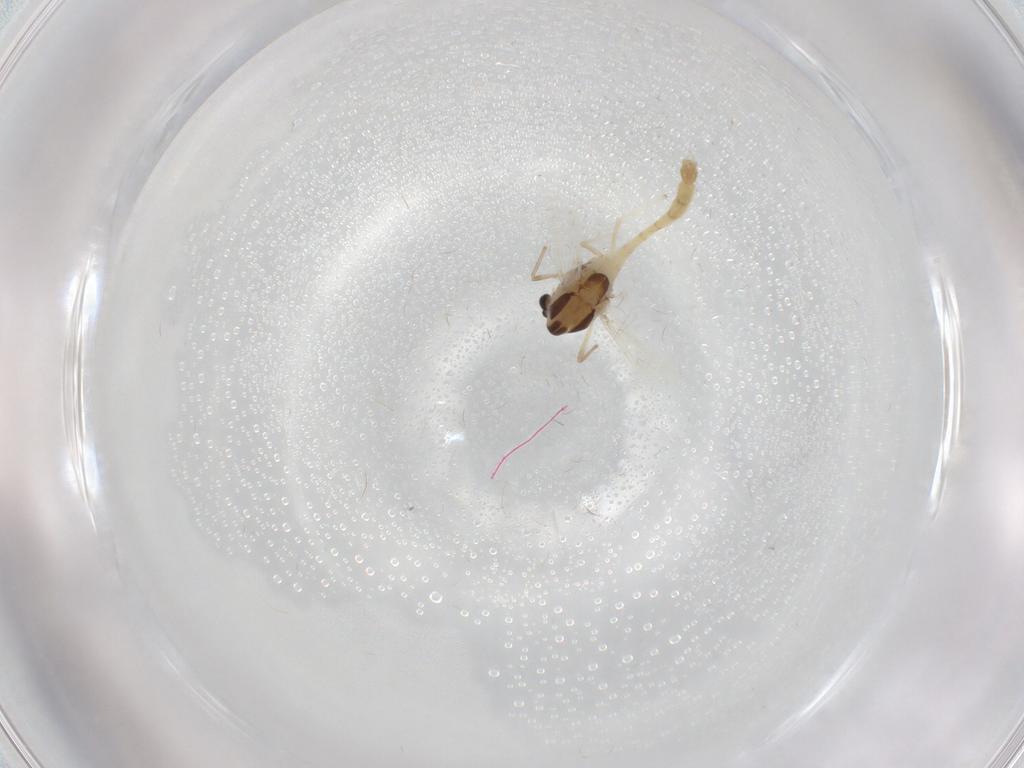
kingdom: Animalia
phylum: Arthropoda
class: Insecta
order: Diptera
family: Chironomidae
